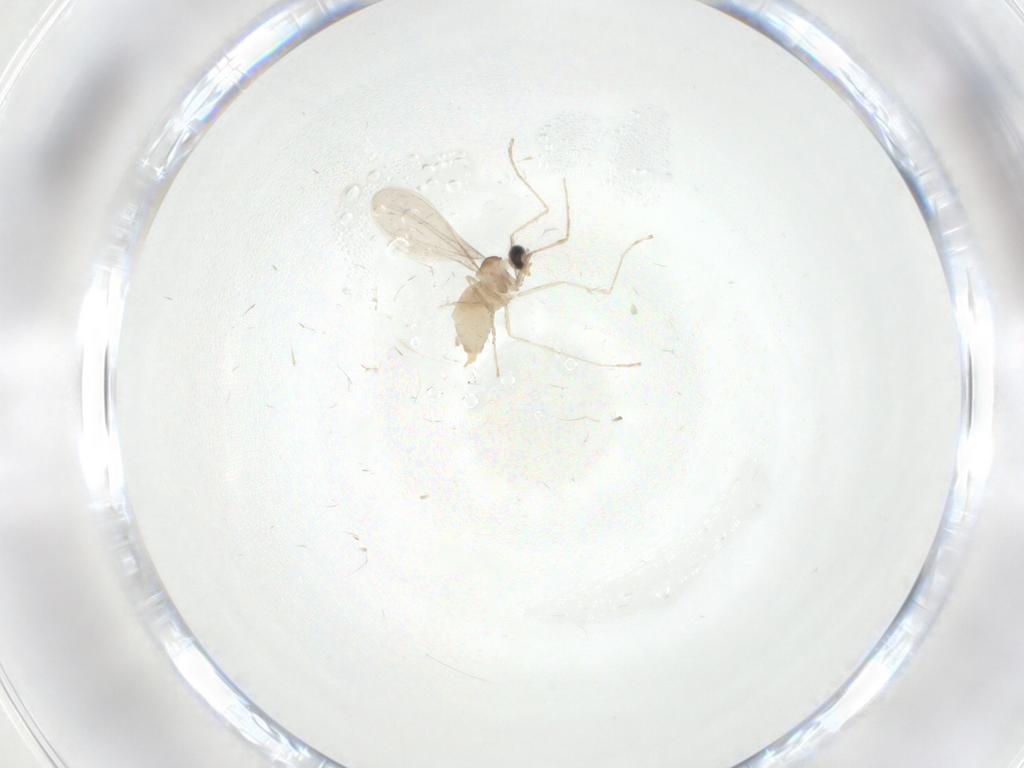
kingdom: Animalia
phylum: Arthropoda
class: Insecta
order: Diptera
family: Cecidomyiidae
